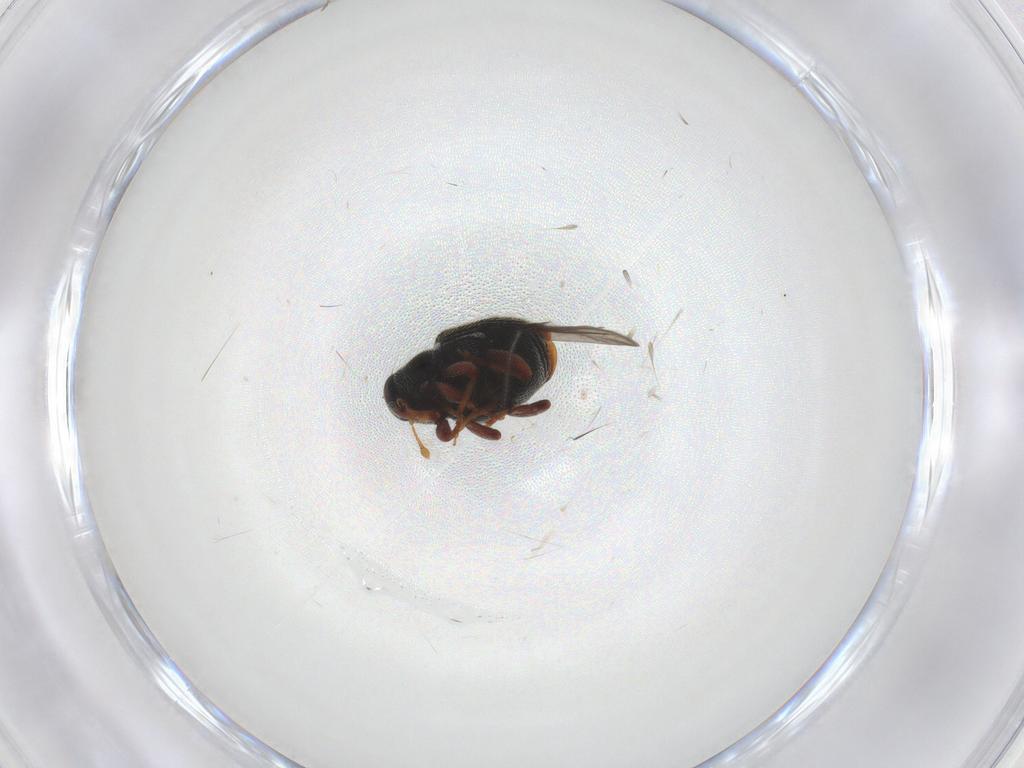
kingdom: Animalia
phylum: Arthropoda
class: Insecta
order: Coleoptera
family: Curculionidae
